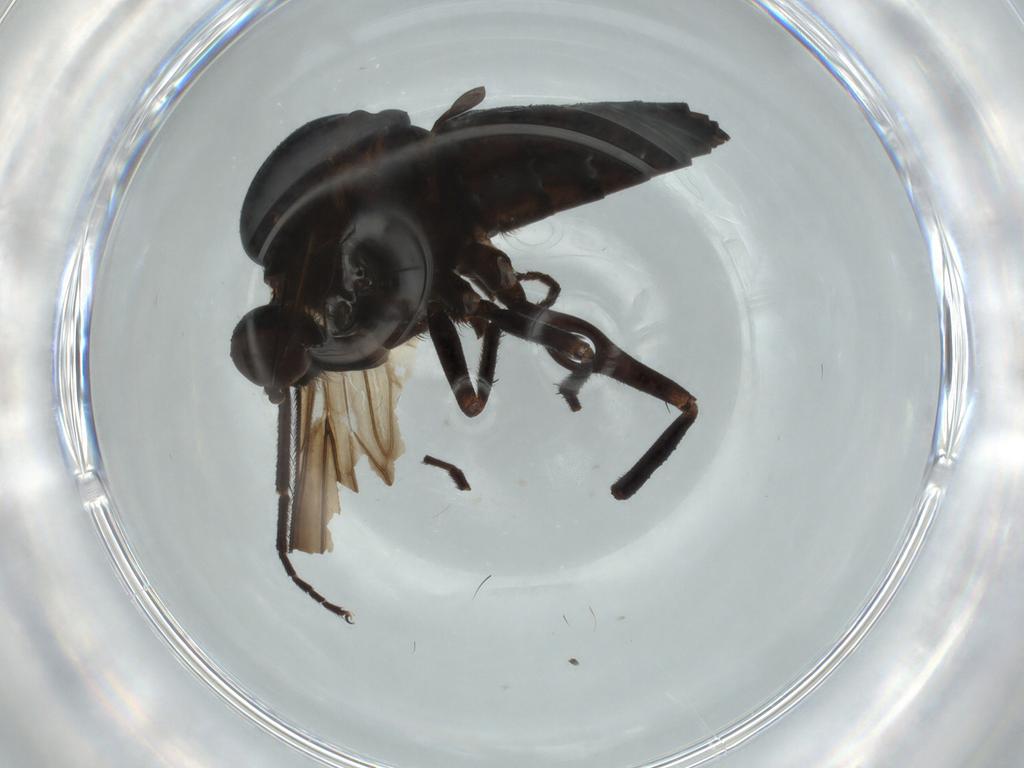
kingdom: Animalia
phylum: Arthropoda
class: Insecta
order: Diptera
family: Empididae
